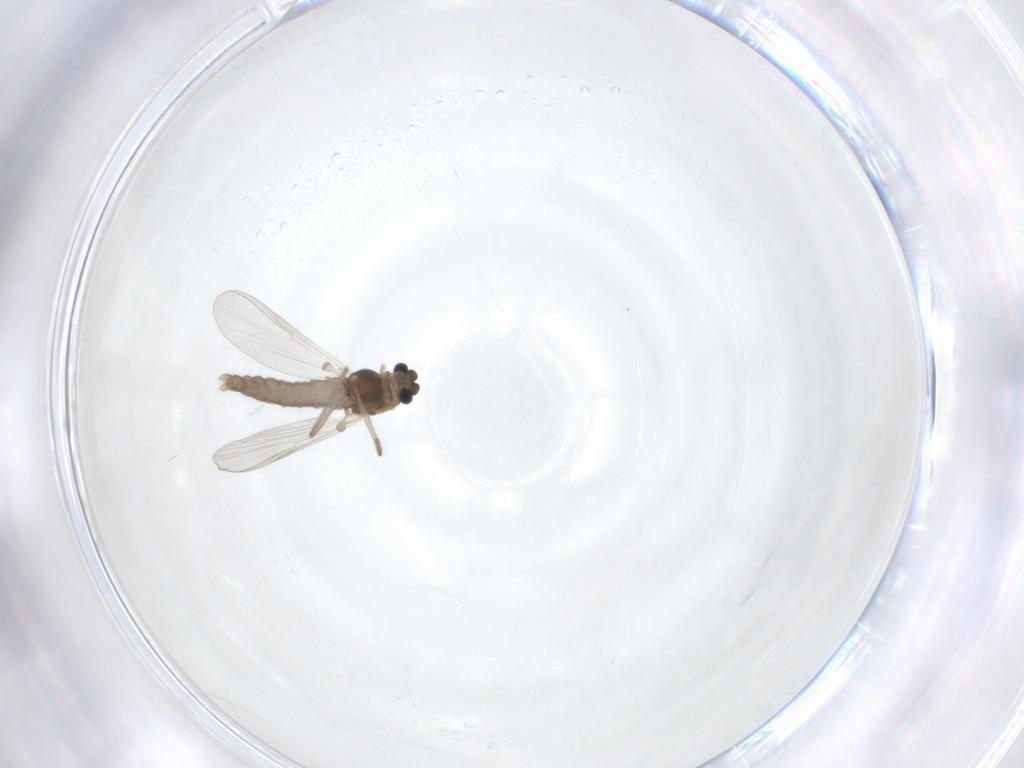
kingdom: Animalia
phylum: Arthropoda
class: Insecta
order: Diptera
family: Chironomidae
